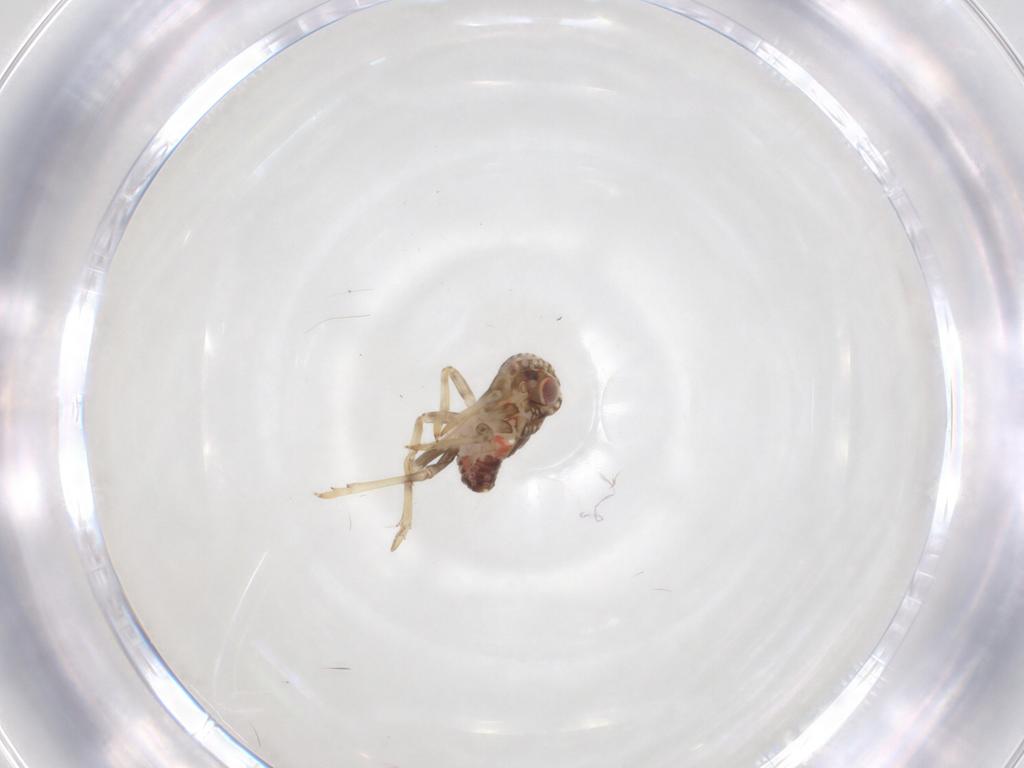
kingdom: Animalia
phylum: Arthropoda
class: Insecta
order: Hemiptera
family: Tropiduchidae
